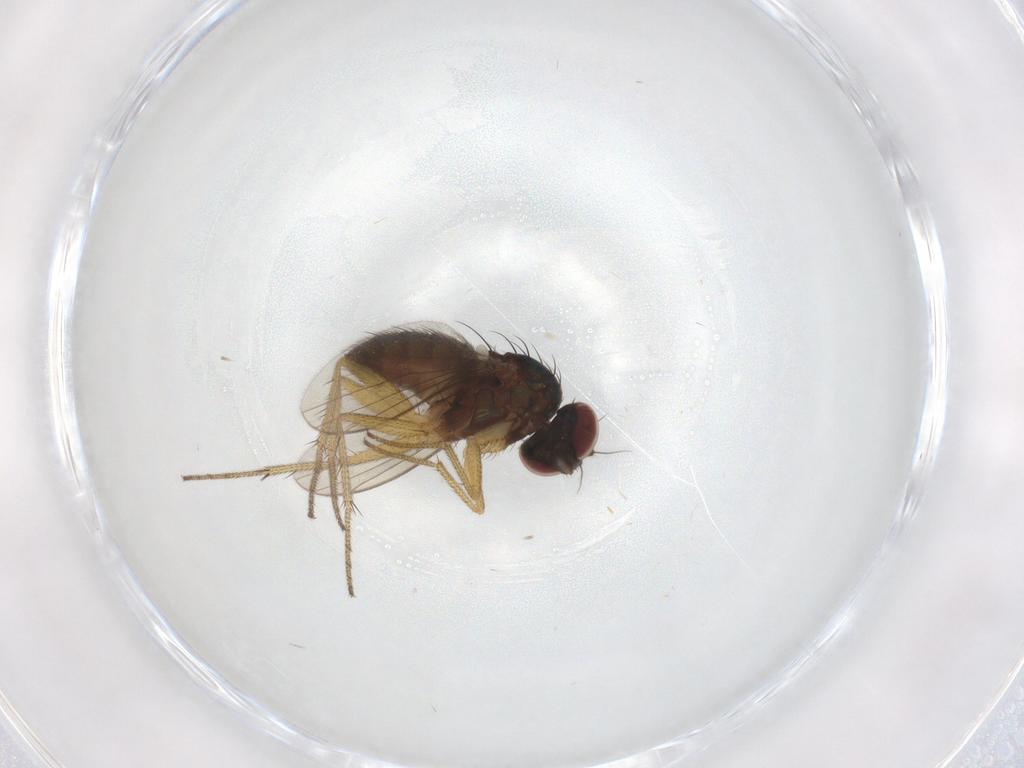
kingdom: Animalia
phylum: Arthropoda
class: Insecta
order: Diptera
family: Dolichopodidae
